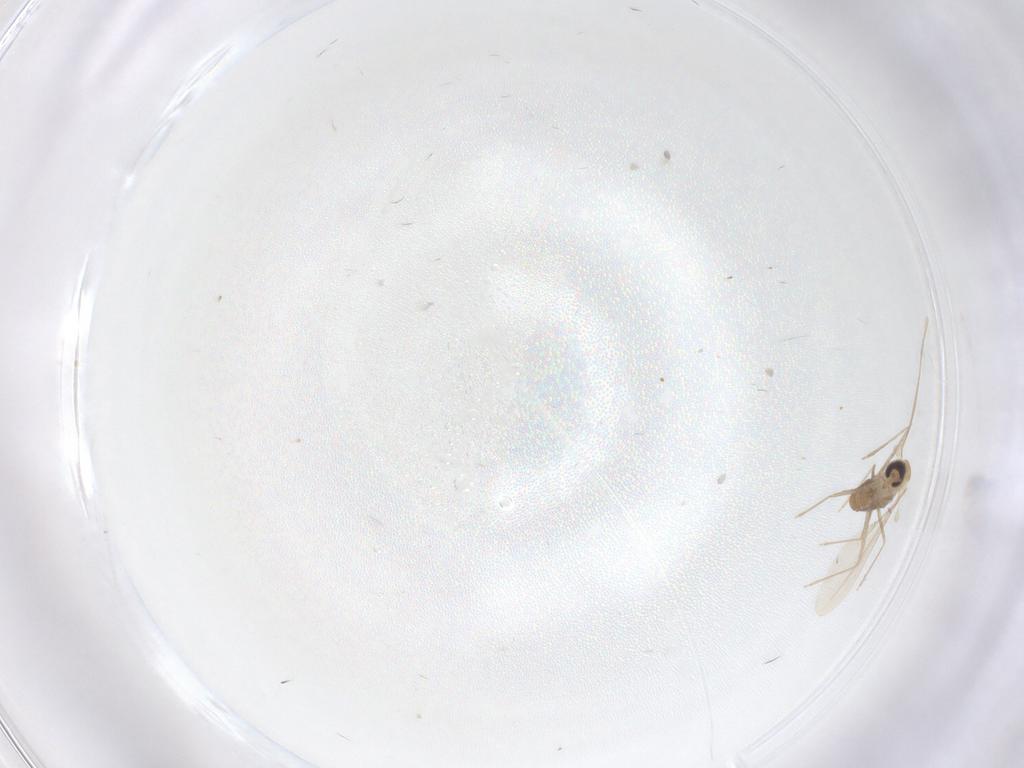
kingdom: Animalia
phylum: Arthropoda
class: Insecta
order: Diptera
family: Cecidomyiidae
